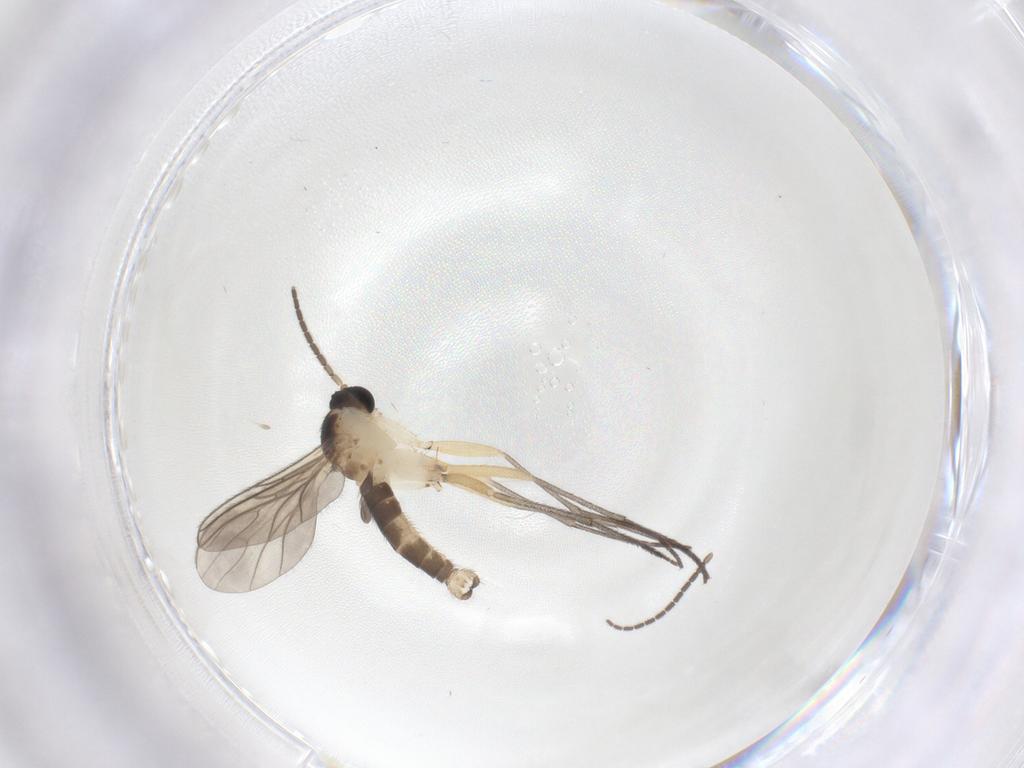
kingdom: Animalia
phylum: Arthropoda
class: Insecta
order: Diptera
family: Sciaridae
